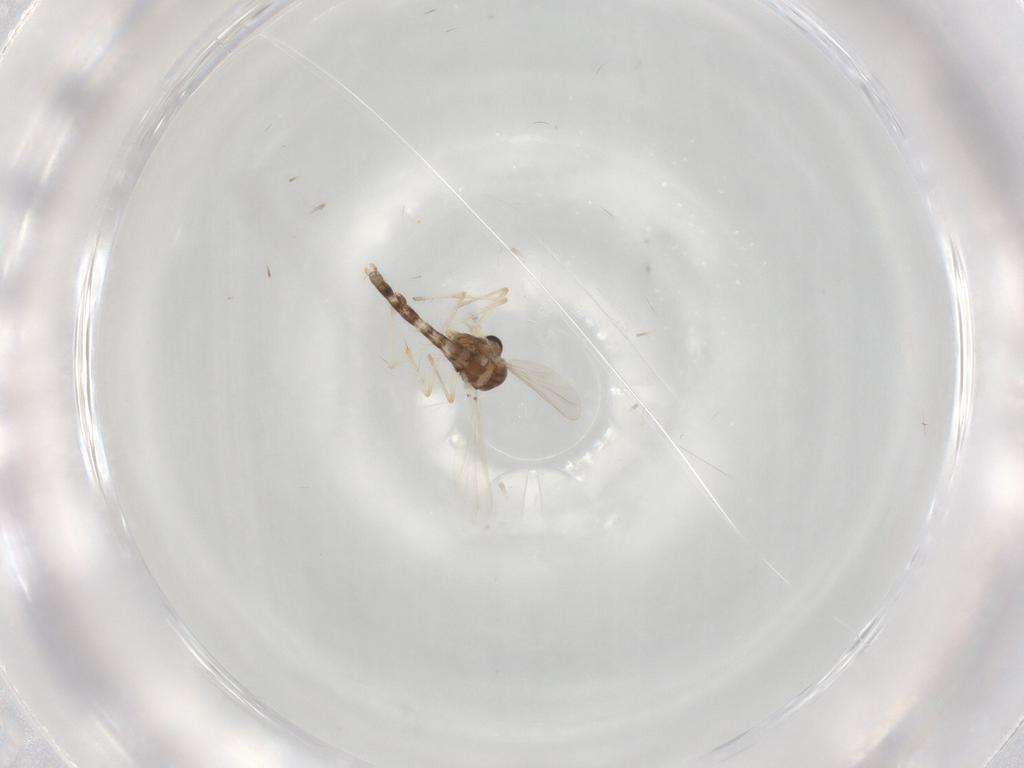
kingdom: Animalia
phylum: Arthropoda
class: Insecta
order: Diptera
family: Chironomidae
